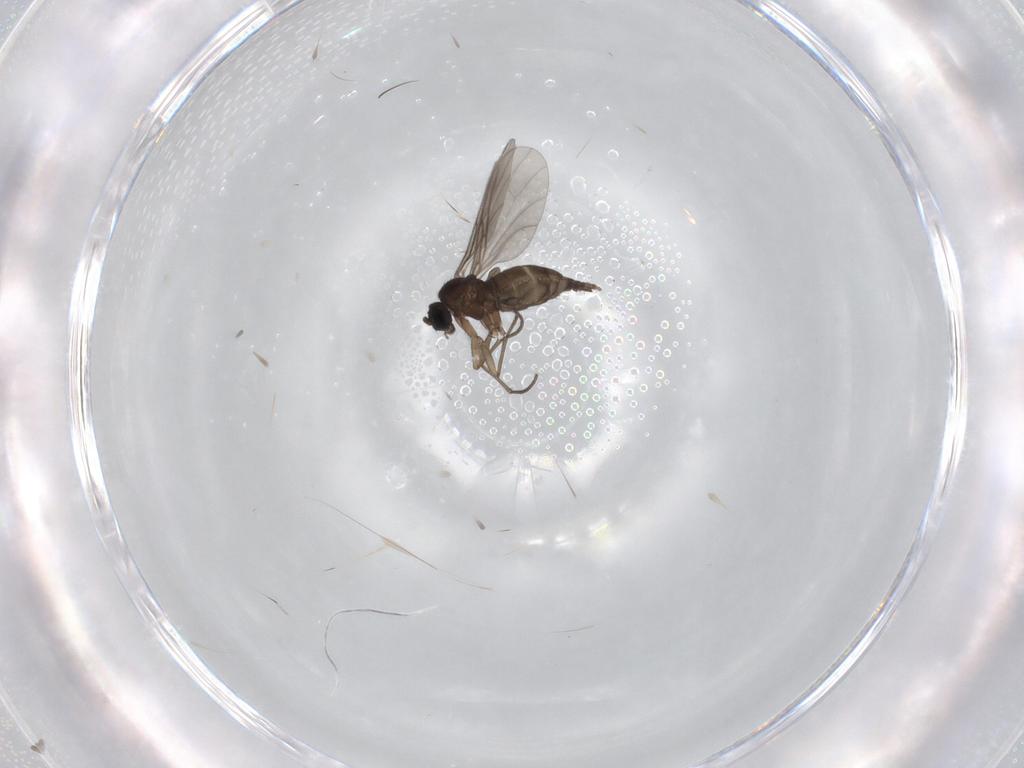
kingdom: Animalia
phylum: Arthropoda
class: Insecta
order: Diptera
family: Sciaridae
